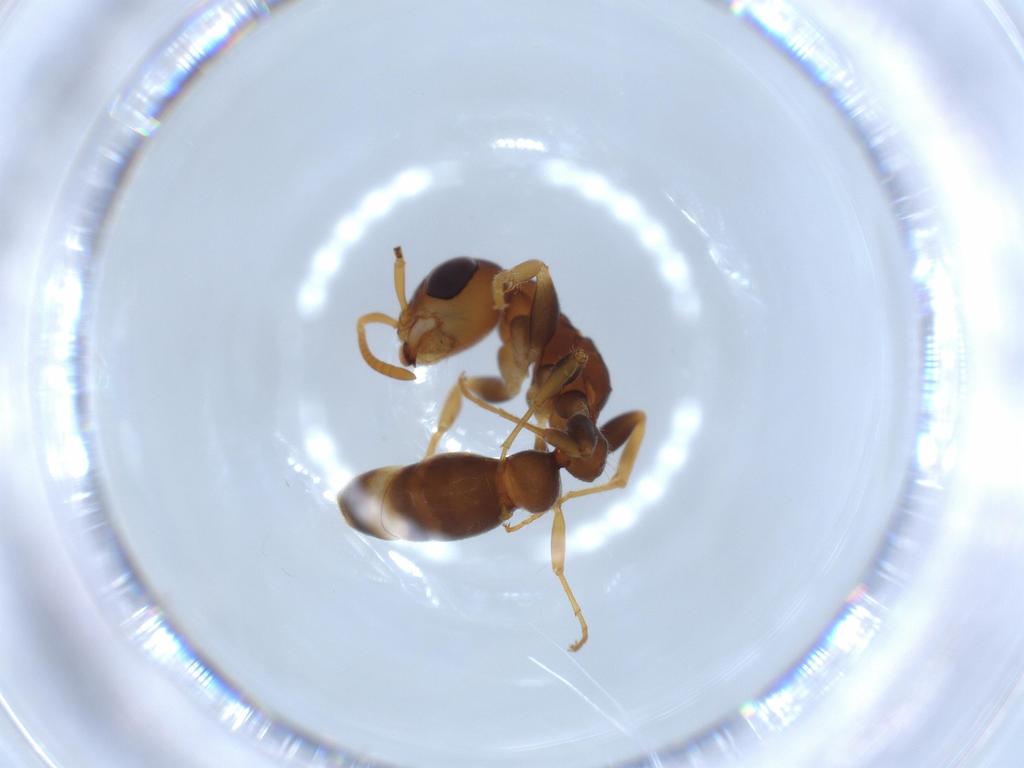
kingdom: Animalia
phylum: Arthropoda
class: Insecta
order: Hymenoptera
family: Formicidae
